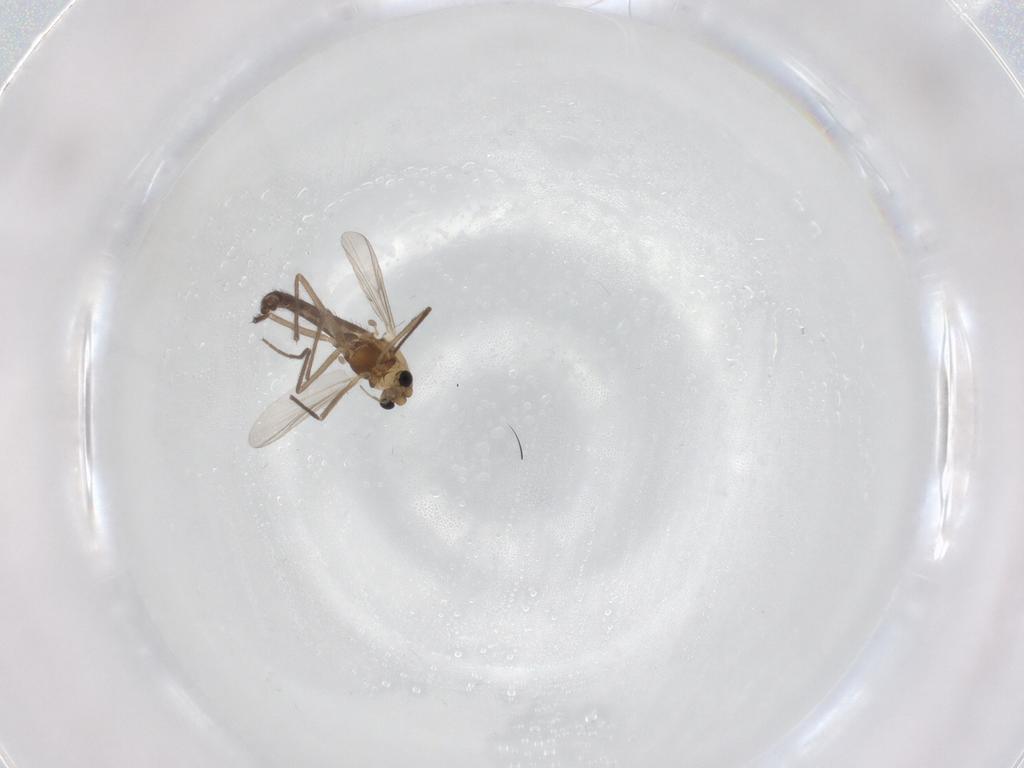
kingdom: Animalia
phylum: Arthropoda
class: Insecta
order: Diptera
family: Chironomidae
